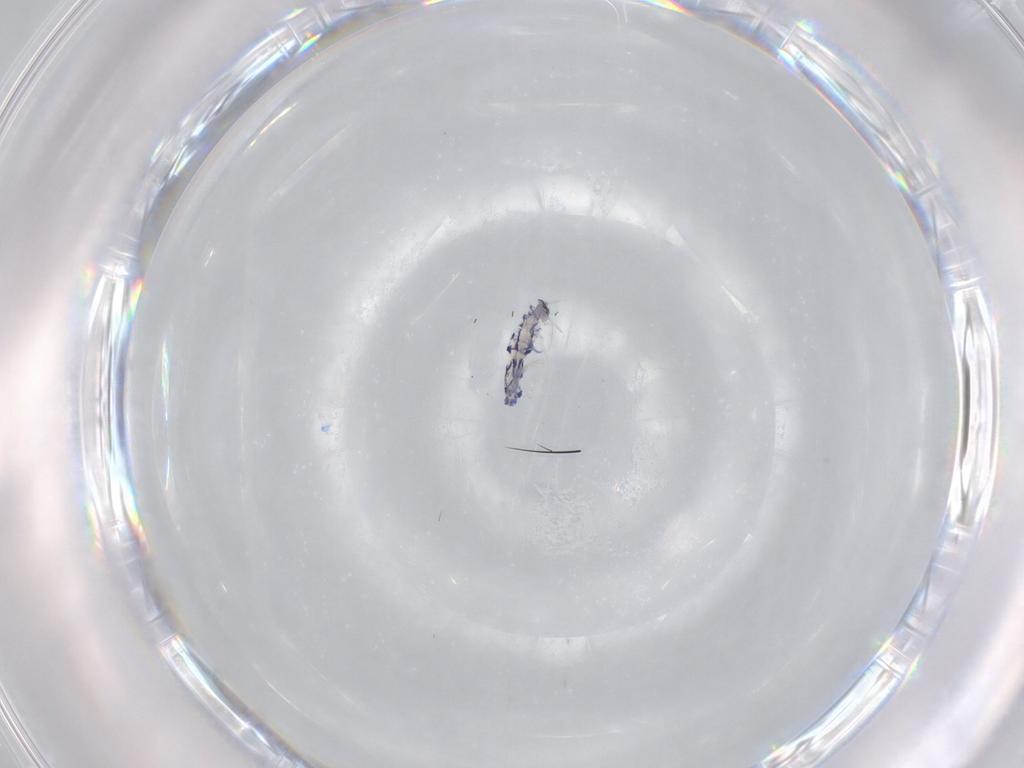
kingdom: Animalia
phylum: Arthropoda
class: Collembola
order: Entomobryomorpha
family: Entomobryidae
